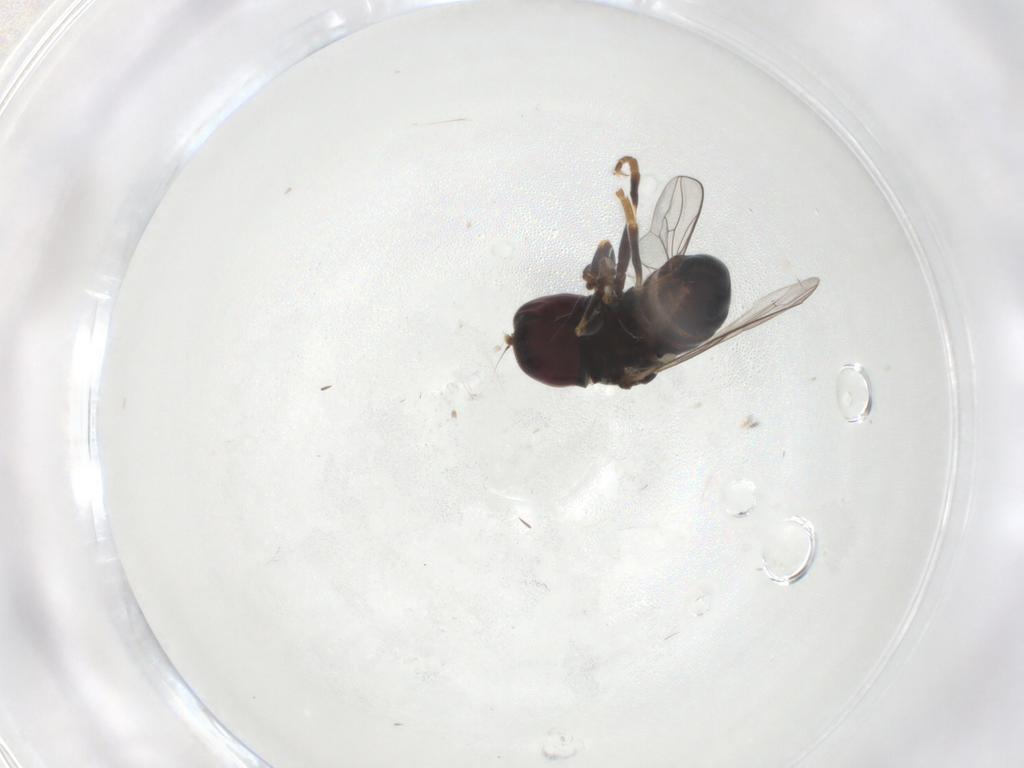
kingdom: Animalia
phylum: Arthropoda
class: Insecta
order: Diptera
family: Pipunculidae
